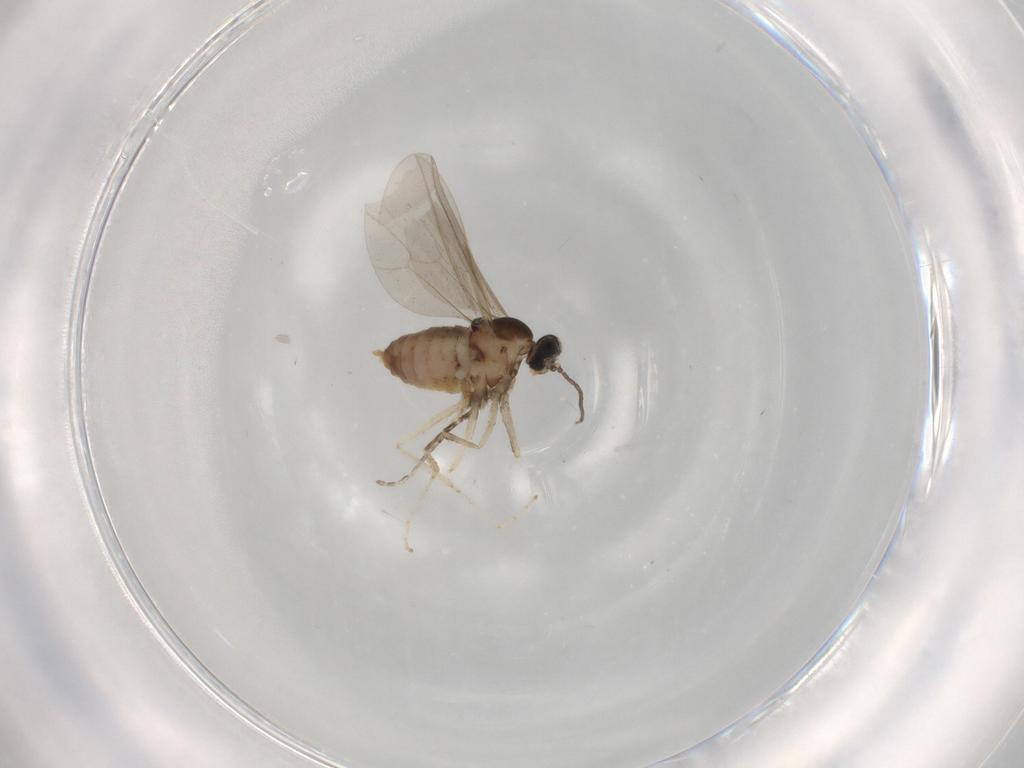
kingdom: Animalia
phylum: Arthropoda
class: Insecta
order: Diptera
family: Cecidomyiidae
